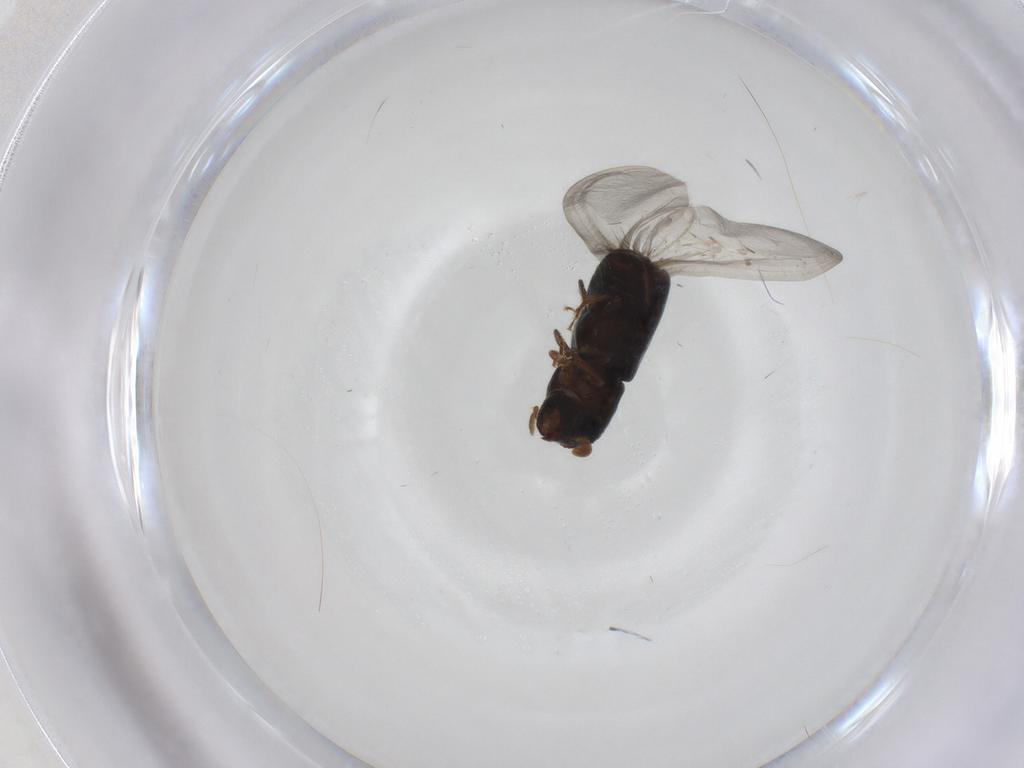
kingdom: Animalia
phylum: Arthropoda
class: Insecta
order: Coleoptera
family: Curculionidae
